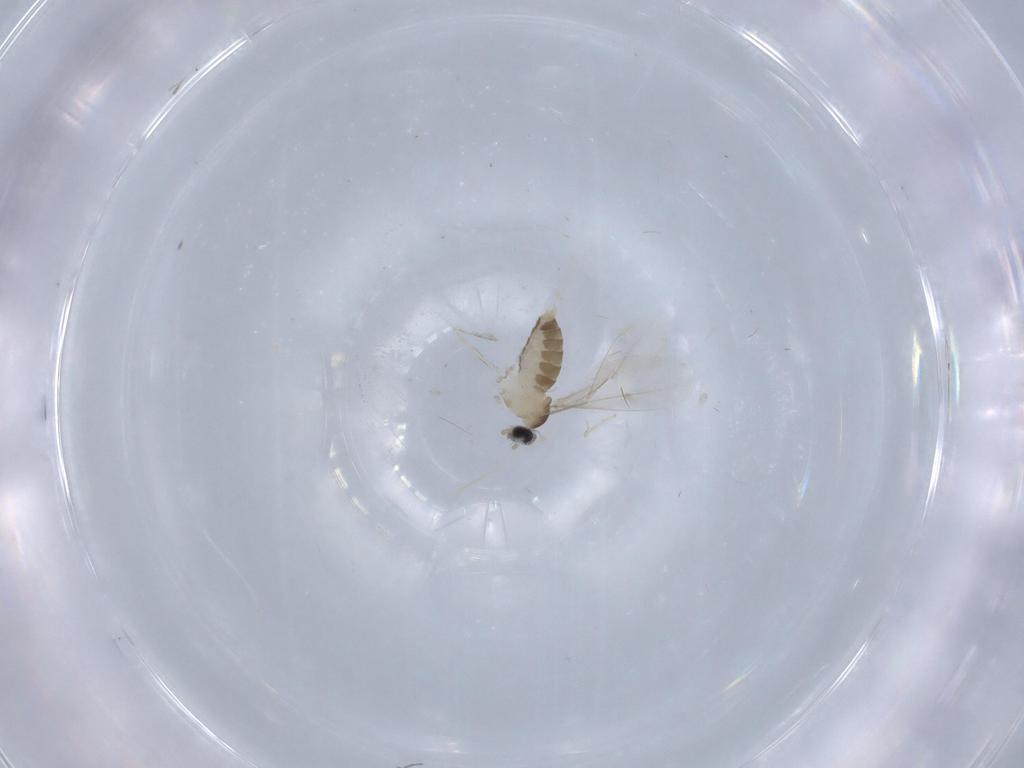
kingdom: Animalia
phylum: Arthropoda
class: Insecta
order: Diptera
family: Cecidomyiidae
